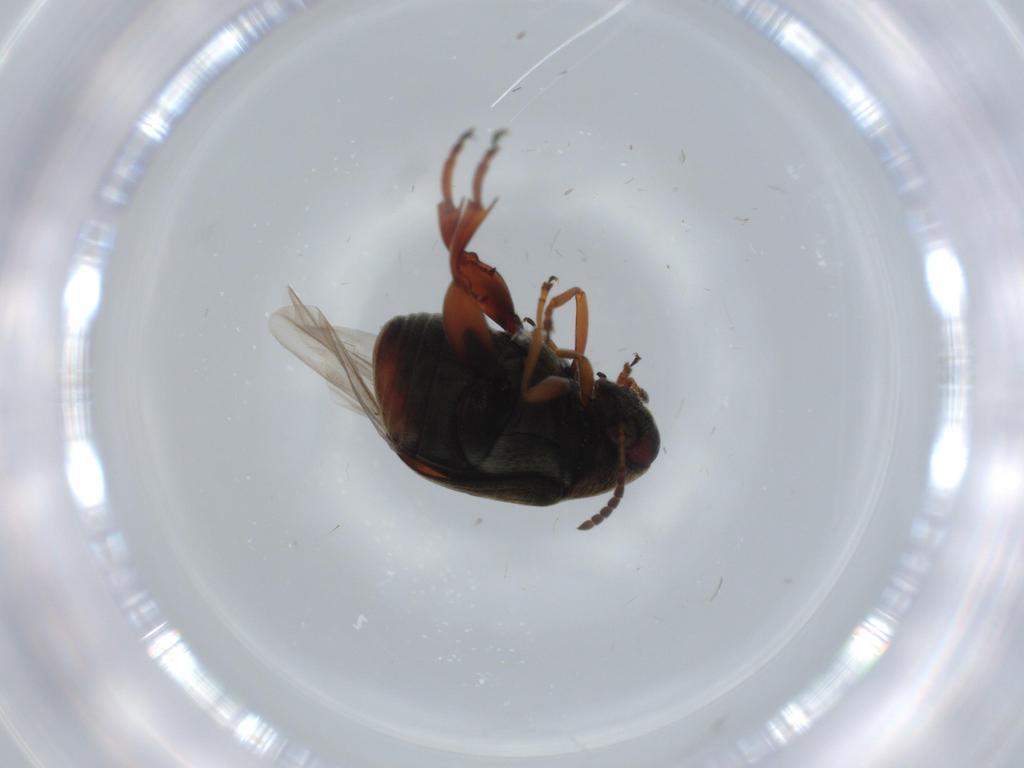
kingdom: Animalia
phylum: Arthropoda
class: Insecta
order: Coleoptera
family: Chrysomelidae
